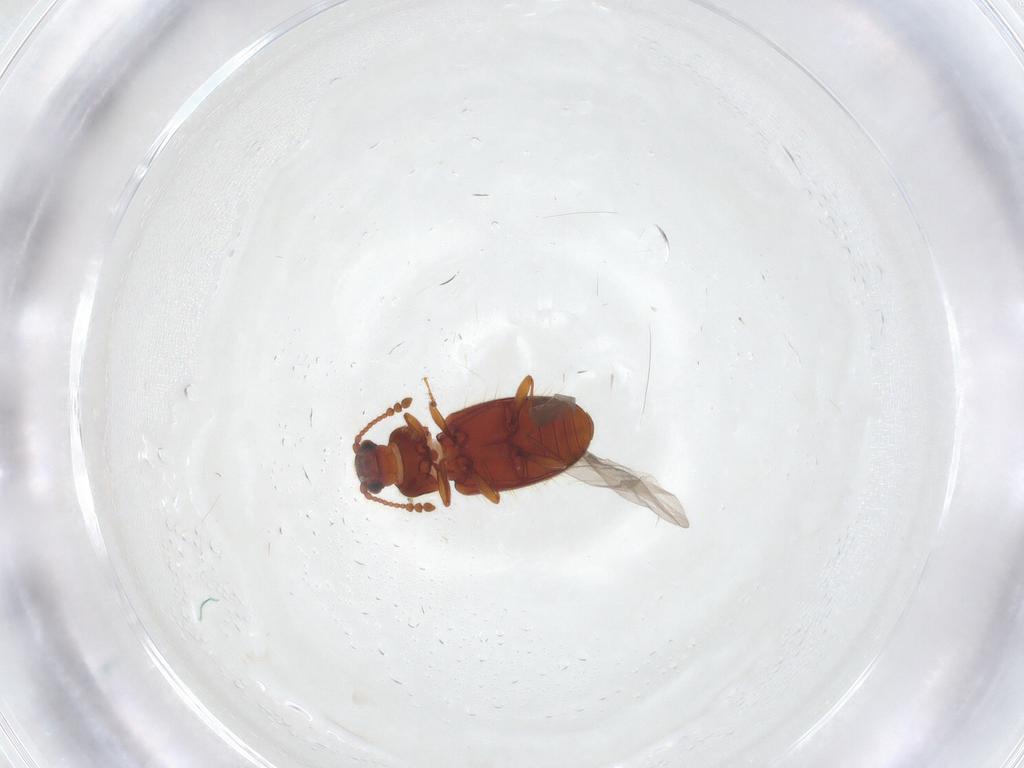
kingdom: Animalia
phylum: Arthropoda
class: Insecta
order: Coleoptera
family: Cryptophagidae
